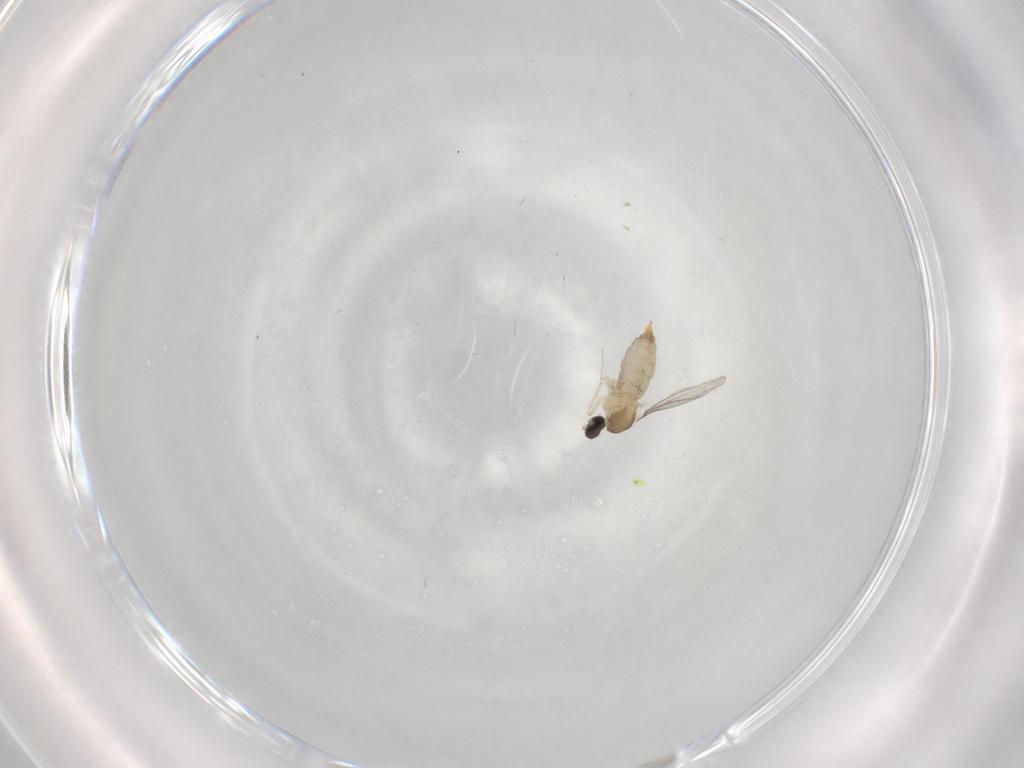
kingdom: Animalia
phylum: Arthropoda
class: Insecta
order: Diptera
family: Cecidomyiidae
